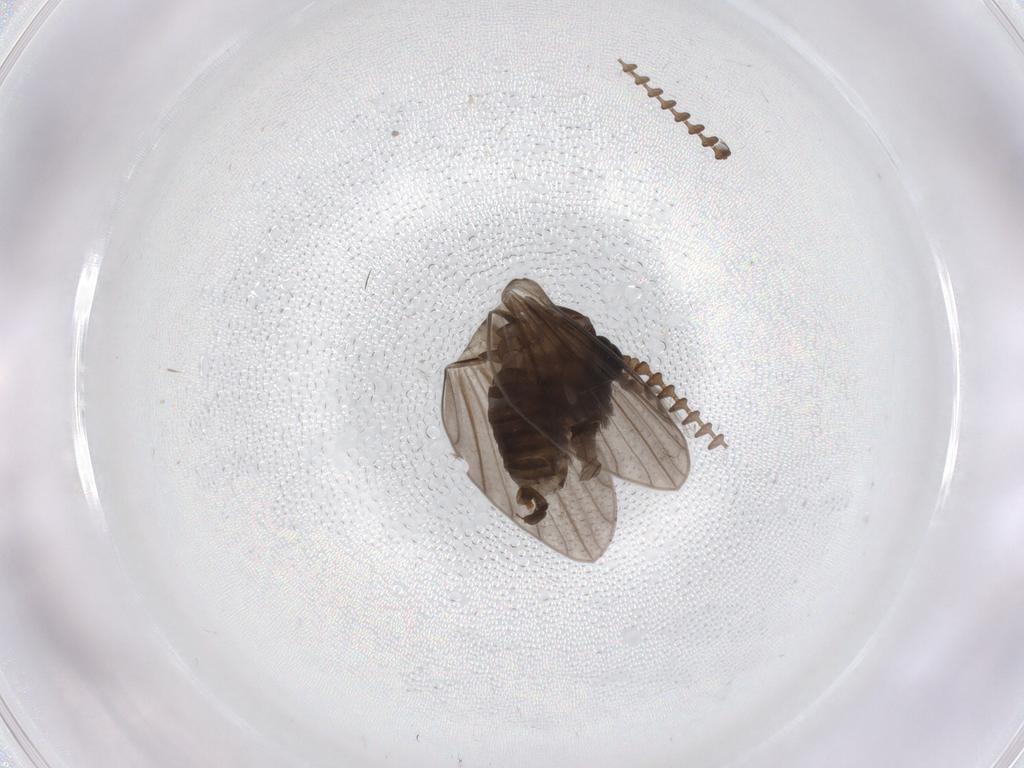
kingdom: Animalia
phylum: Arthropoda
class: Insecta
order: Diptera
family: Psychodidae
